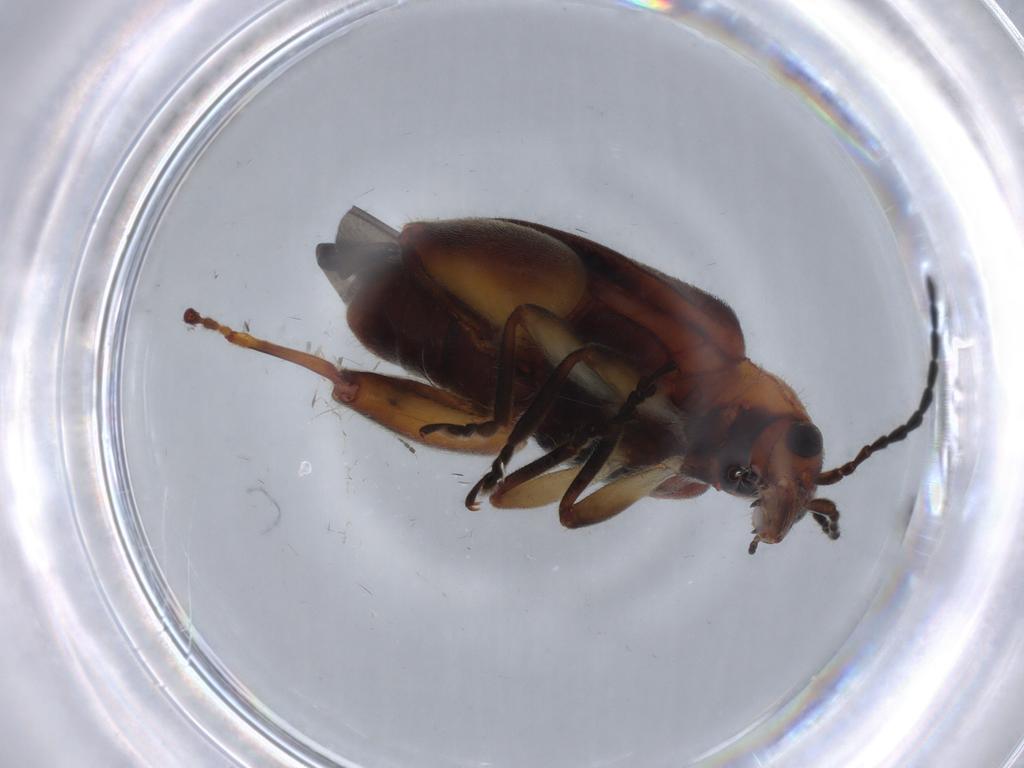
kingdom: Animalia
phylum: Arthropoda
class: Insecta
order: Coleoptera
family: Chrysomelidae
